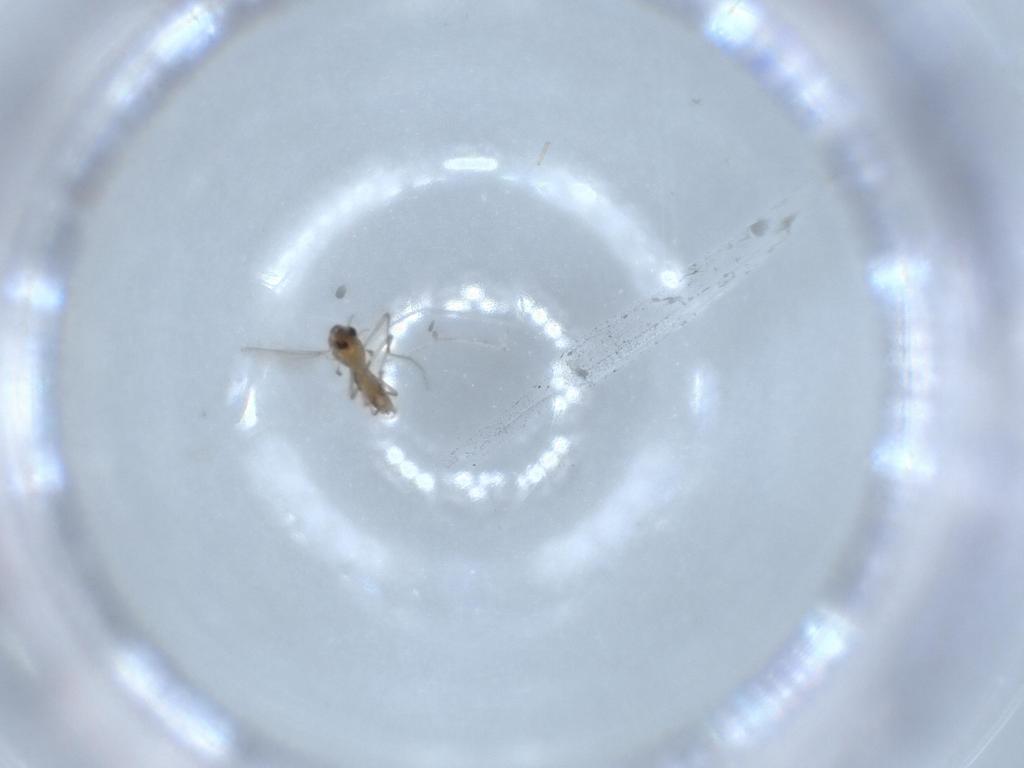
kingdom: Animalia
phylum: Arthropoda
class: Insecta
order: Diptera
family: Chironomidae
